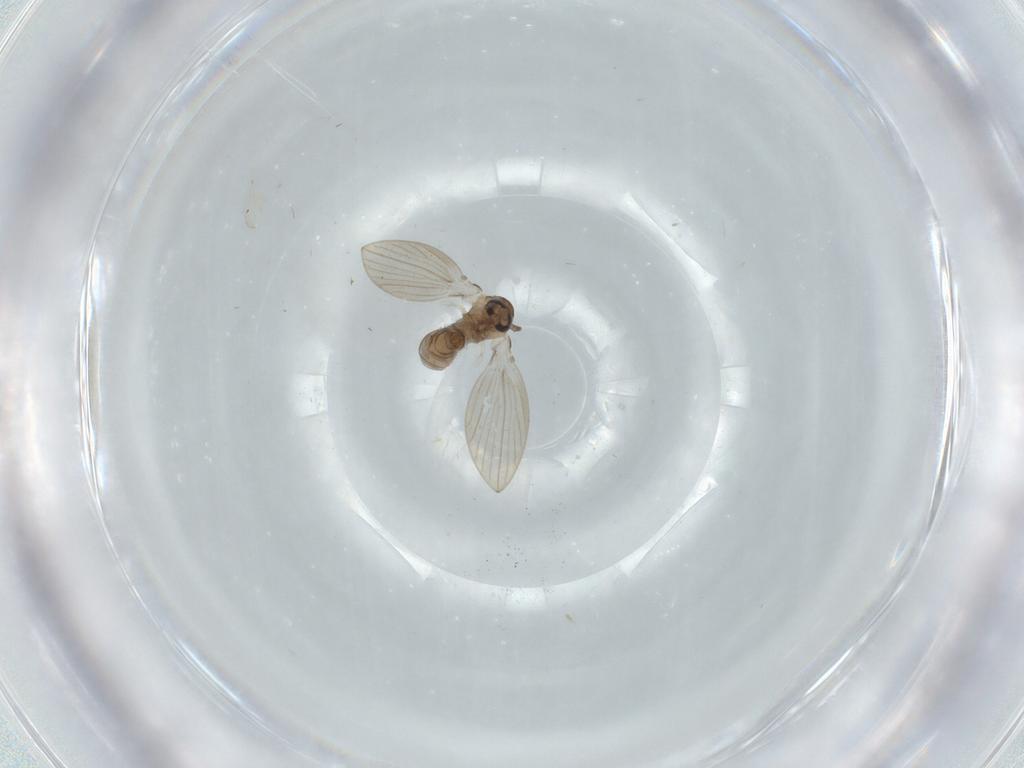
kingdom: Animalia
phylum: Arthropoda
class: Insecta
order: Diptera
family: Psychodidae
